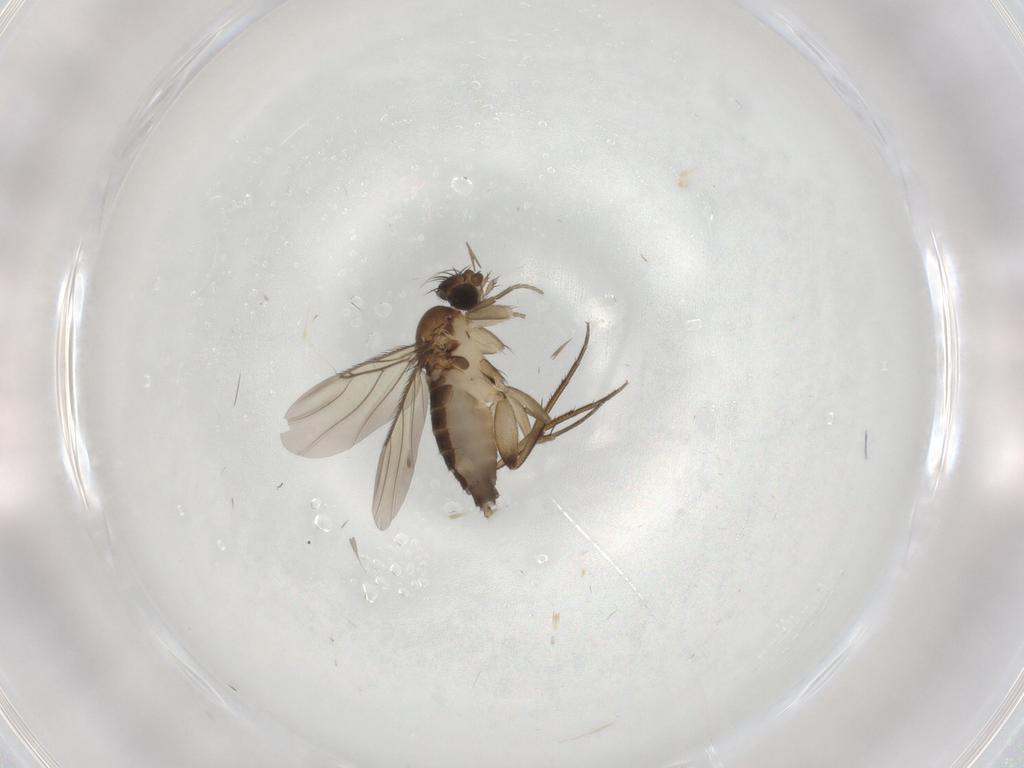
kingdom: Animalia
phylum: Arthropoda
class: Insecta
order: Diptera
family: Phoridae
